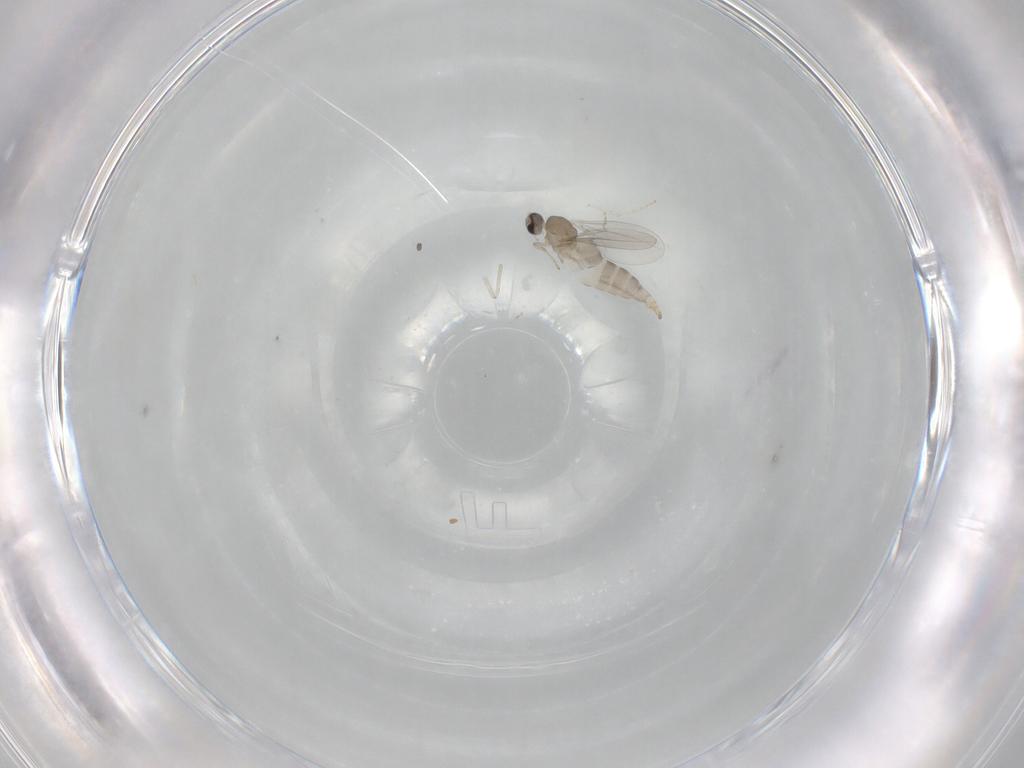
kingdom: Animalia
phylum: Arthropoda
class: Insecta
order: Diptera
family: Cecidomyiidae
